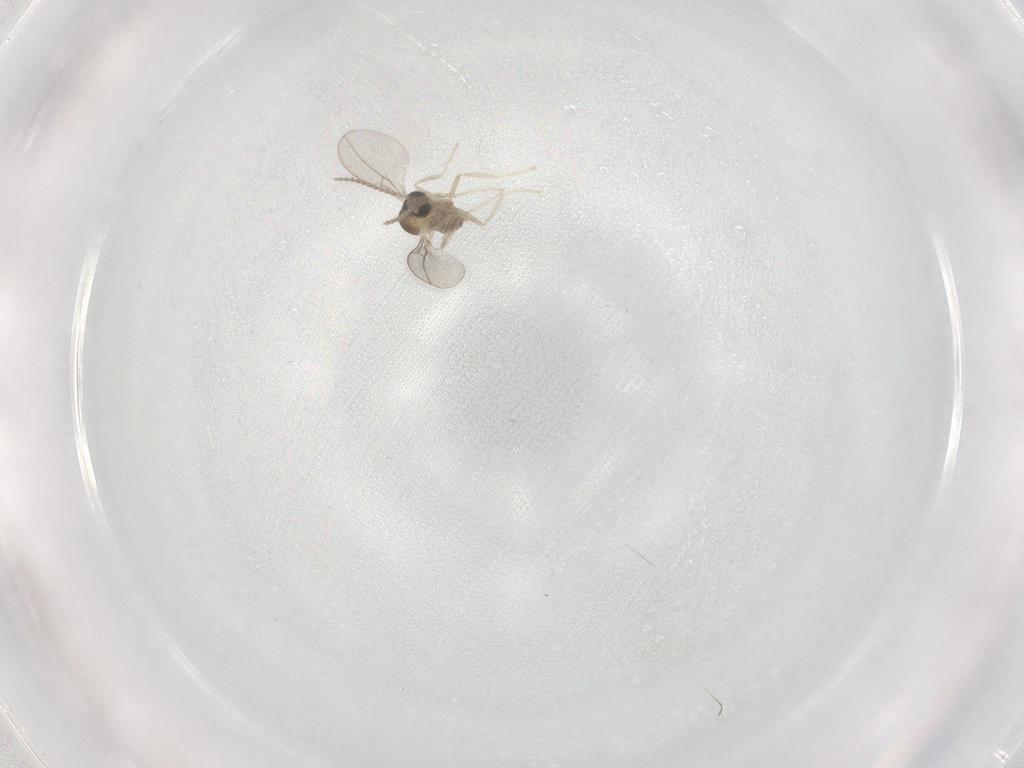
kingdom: Animalia
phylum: Arthropoda
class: Insecta
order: Diptera
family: Cecidomyiidae
